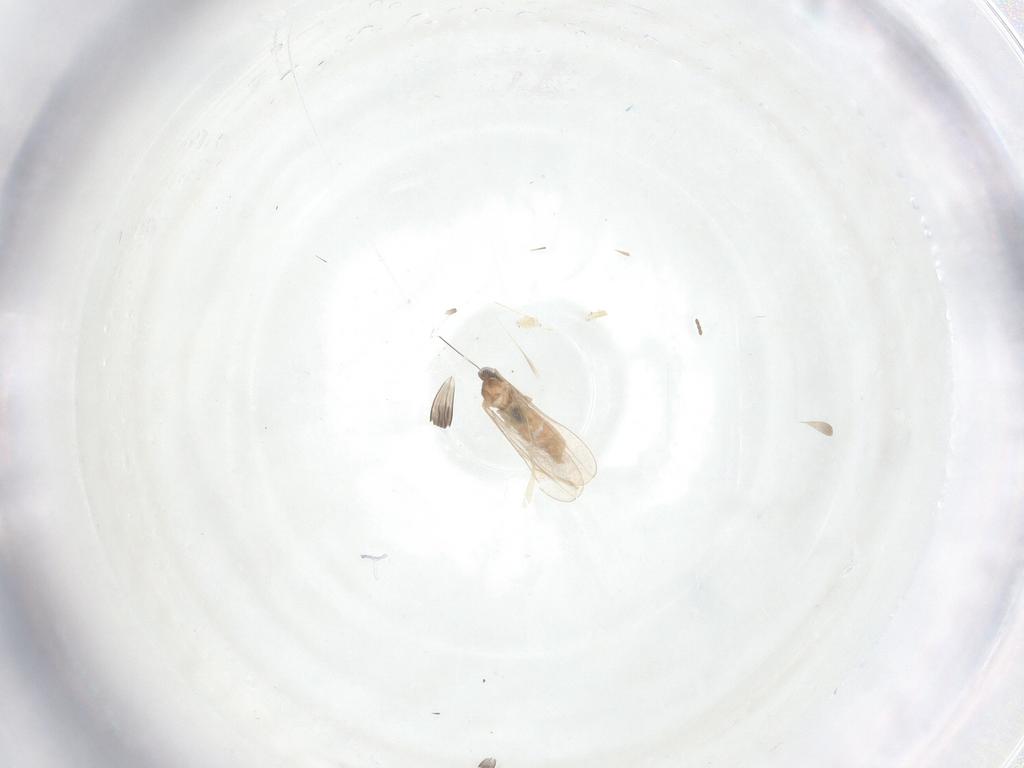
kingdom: Animalia
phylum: Arthropoda
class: Insecta
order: Diptera
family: Cecidomyiidae
